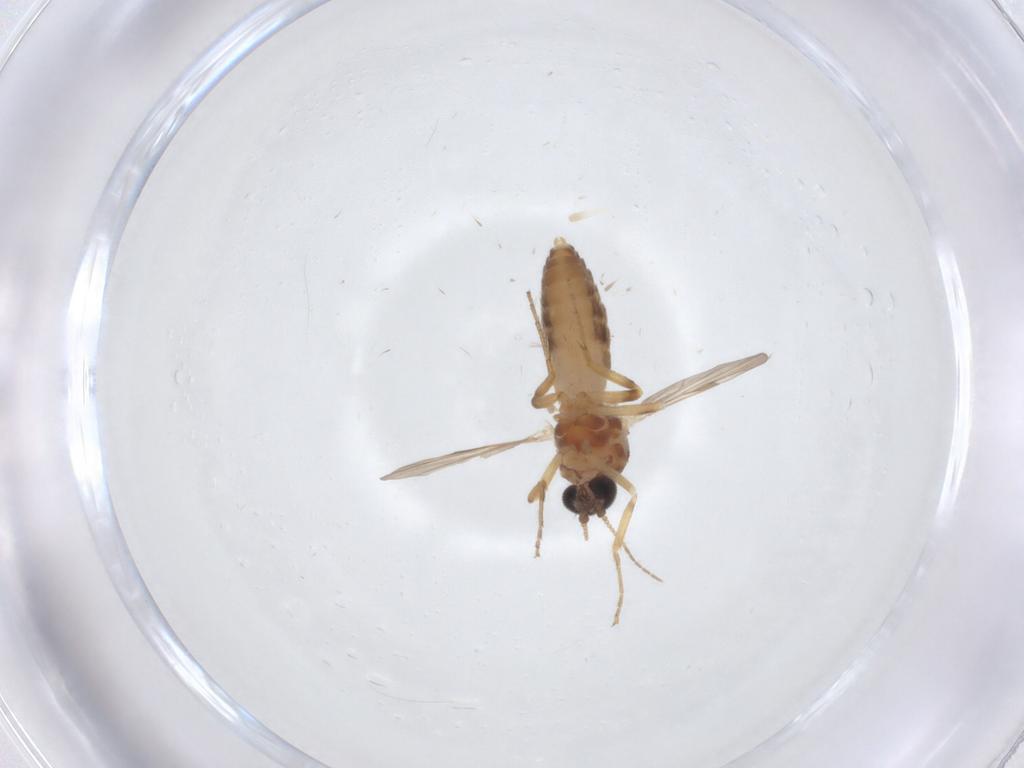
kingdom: Animalia
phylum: Arthropoda
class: Insecta
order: Diptera
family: Ceratopogonidae
